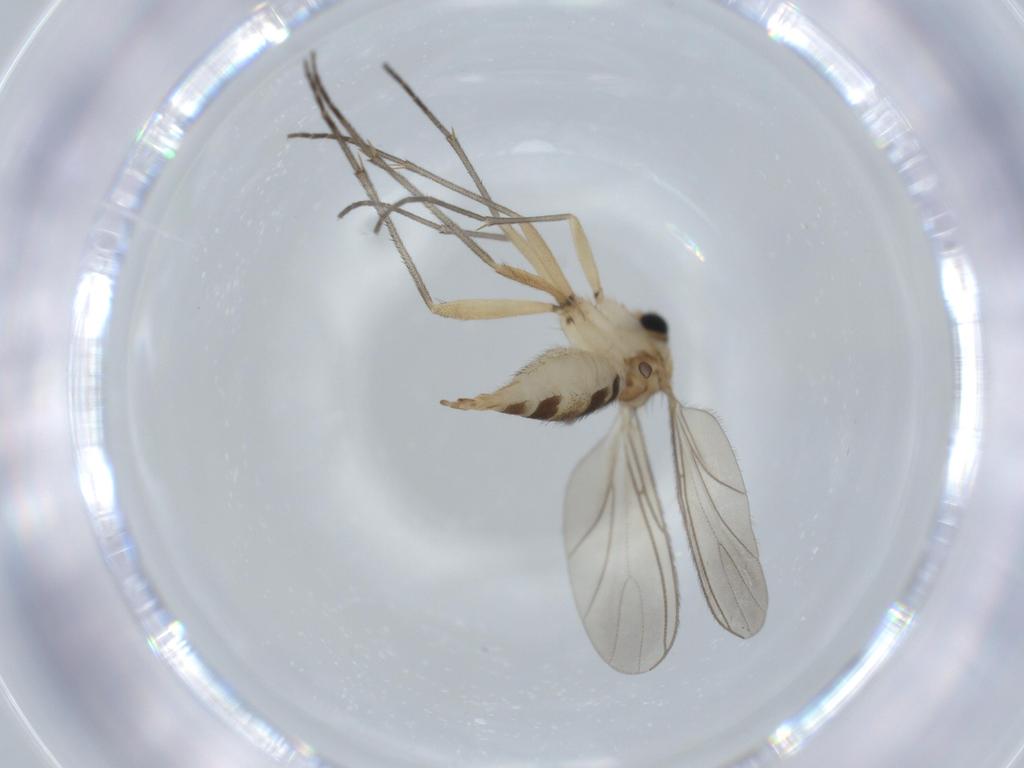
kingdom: Animalia
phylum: Arthropoda
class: Insecta
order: Diptera
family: Sciaridae
